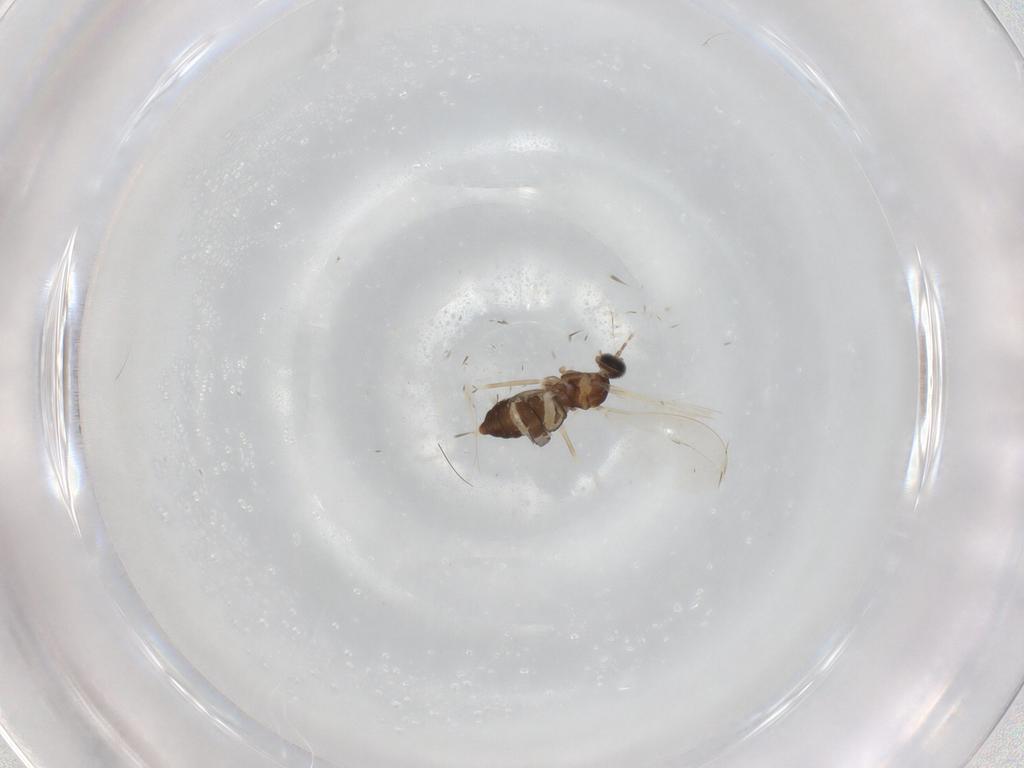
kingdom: Animalia
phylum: Arthropoda
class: Insecta
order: Diptera
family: Cecidomyiidae
